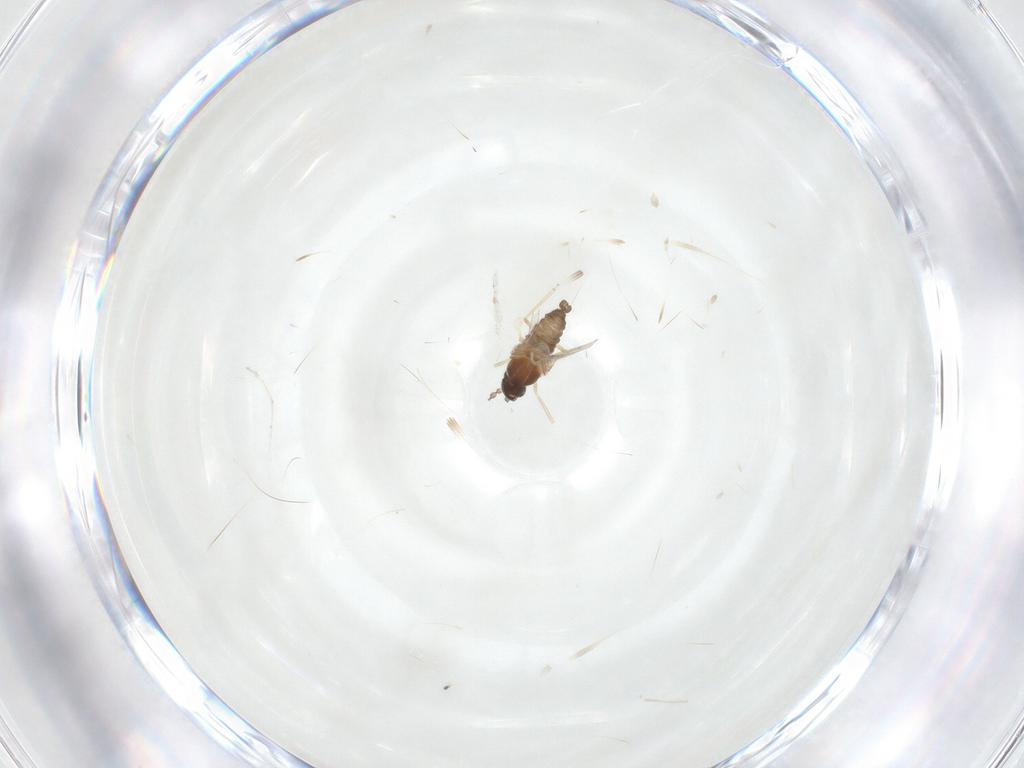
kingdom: Animalia
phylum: Arthropoda
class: Insecta
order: Diptera
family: Cecidomyiidae
